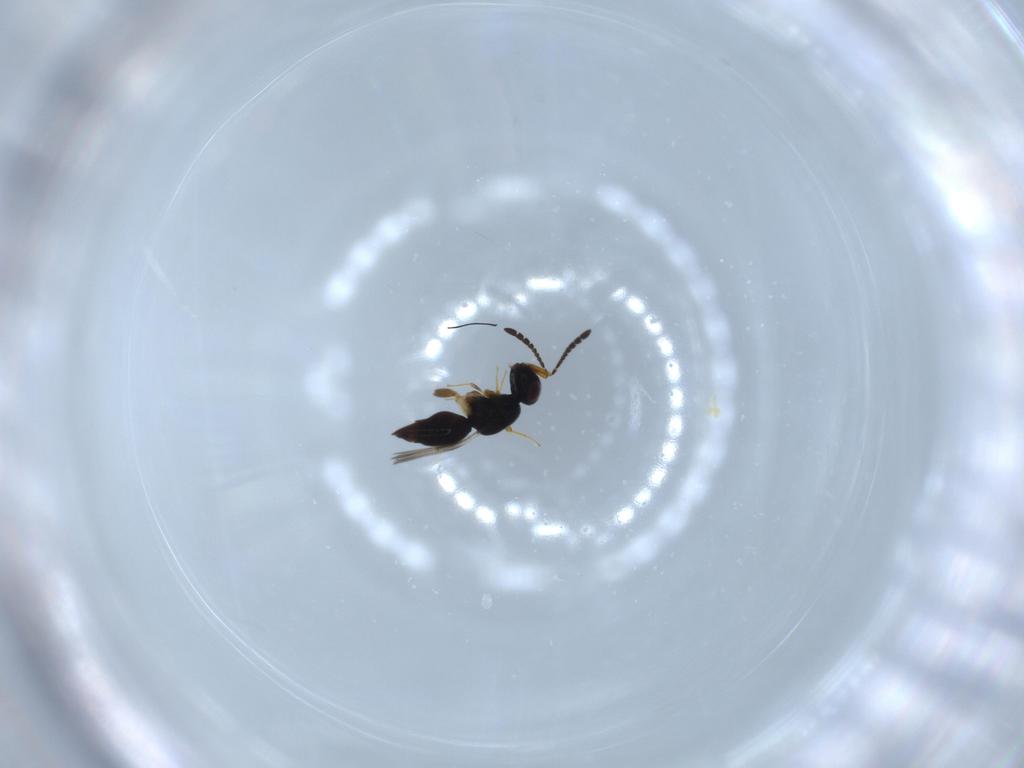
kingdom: Animalia
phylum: Arthropoda
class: Insecta
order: Hymenoptera
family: Ceraphronidae
